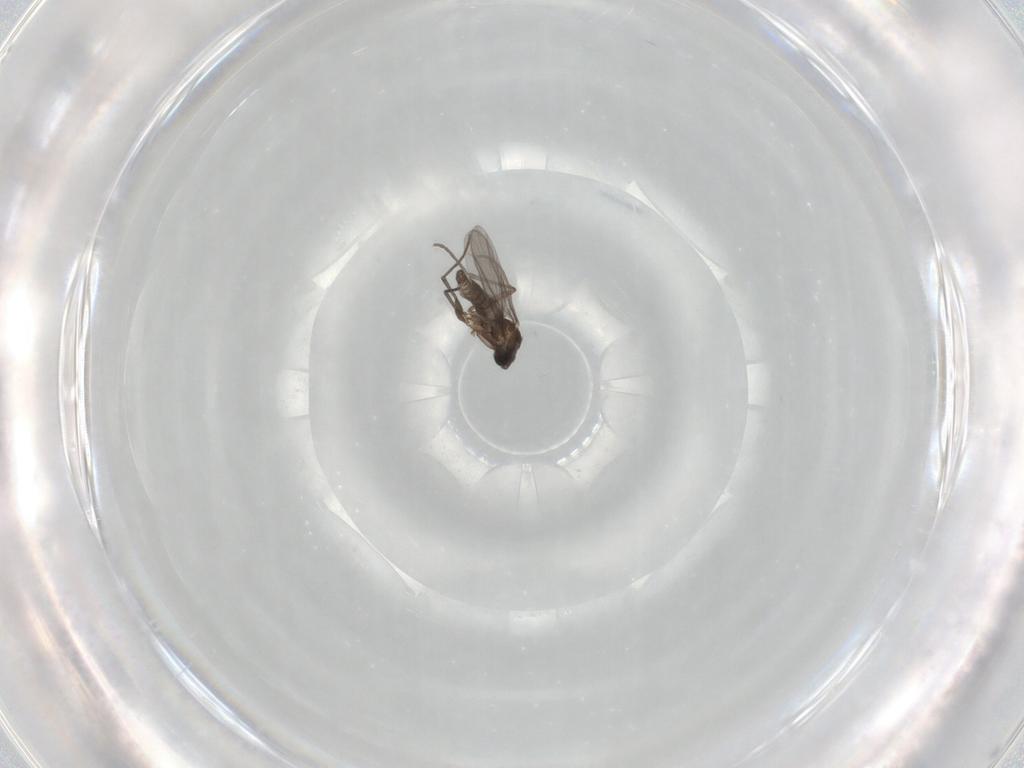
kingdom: Animalia
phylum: Arthropoda
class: Insecta
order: Diptera
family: Sciaridae
